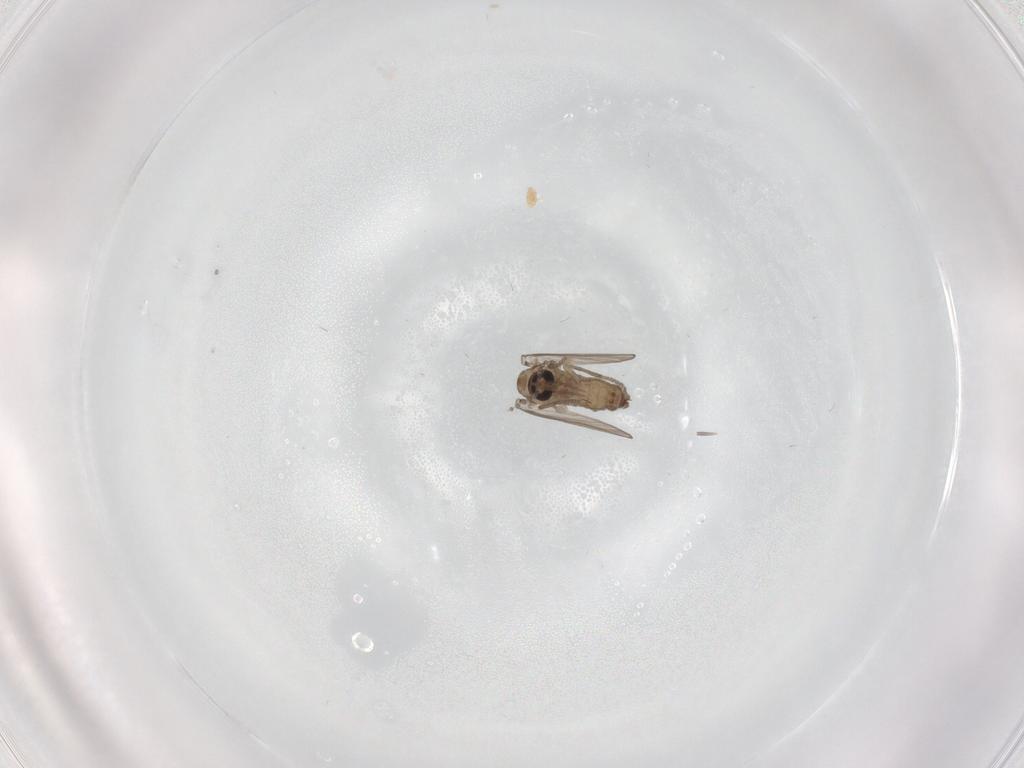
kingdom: Animalia
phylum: Arthropoda
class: Insecta
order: Diptera
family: Psychodidae
